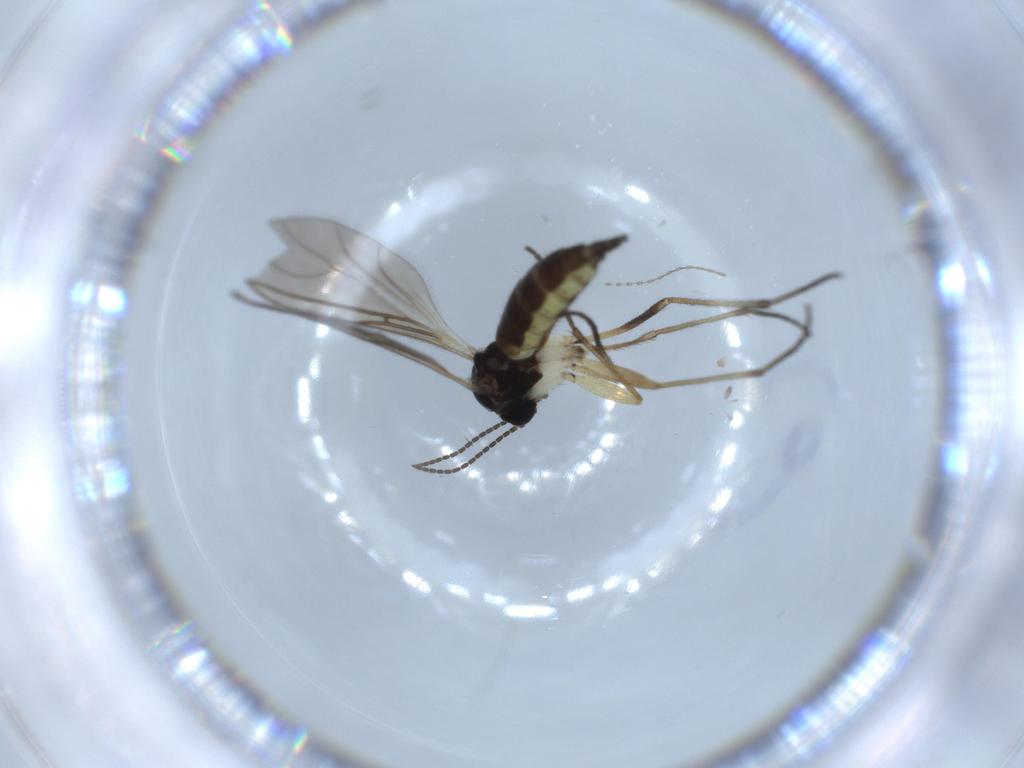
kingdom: Animalia
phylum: Arthropoda
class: Insecta
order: Diptera
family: Sciaridae
